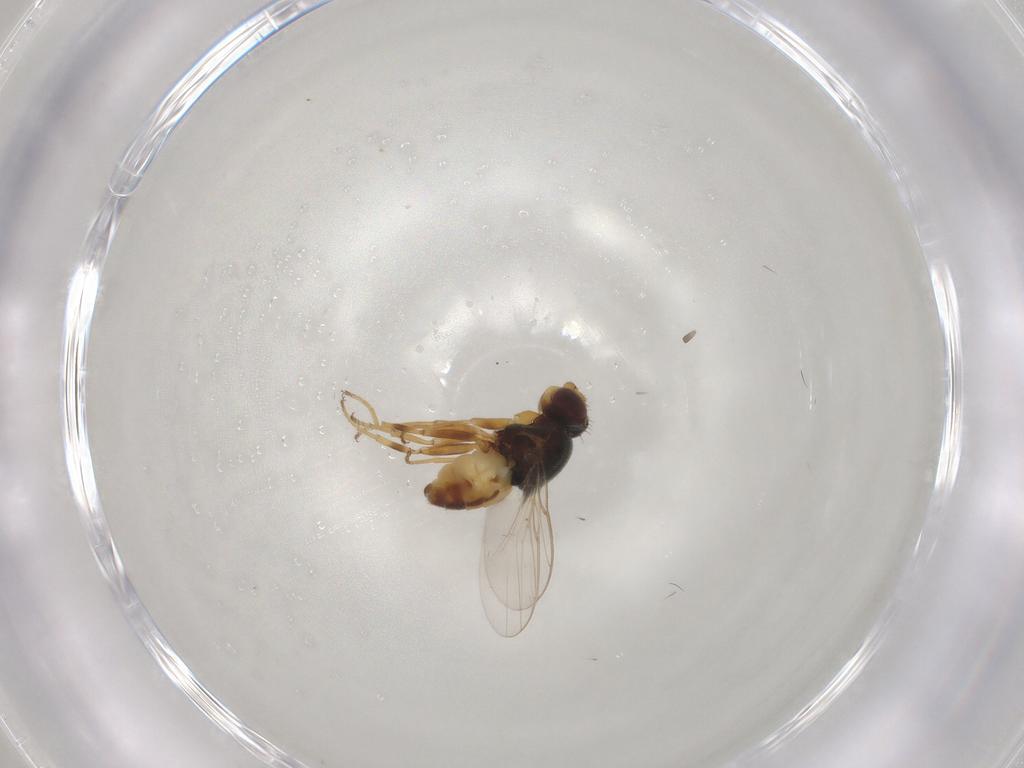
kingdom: Animalia
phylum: Arthropoda
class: Insecta
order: Diptera
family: Chloropidae
